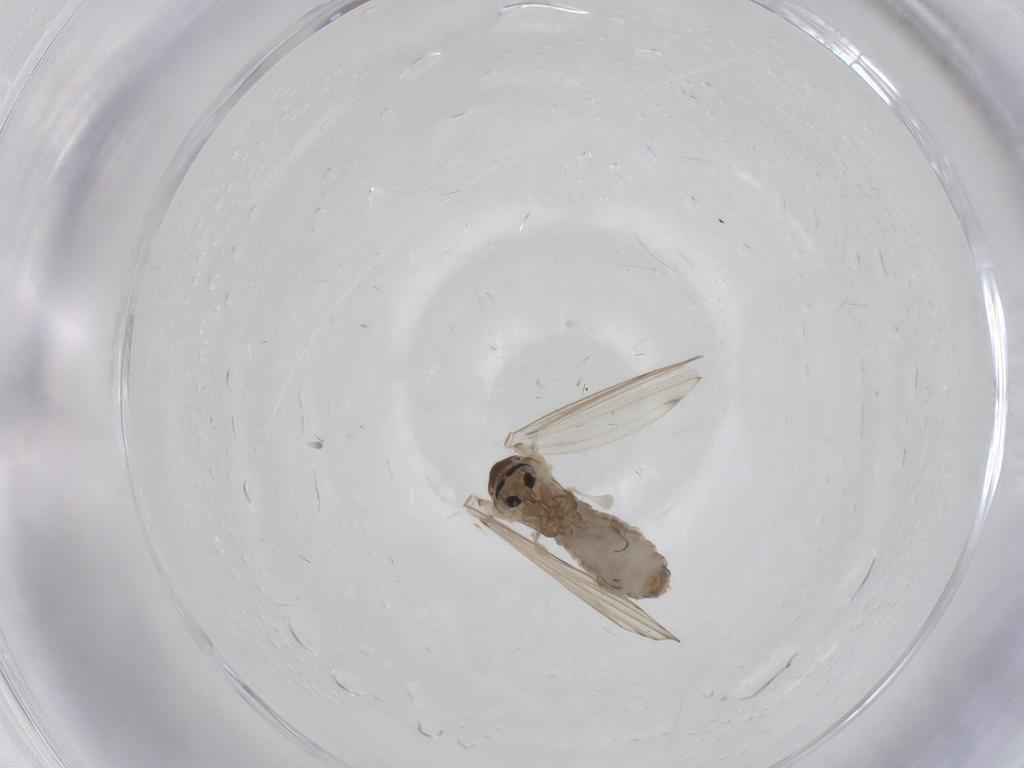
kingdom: Animalia
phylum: Arthropoda
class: Insecta
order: Diptera
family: Psychodidae
